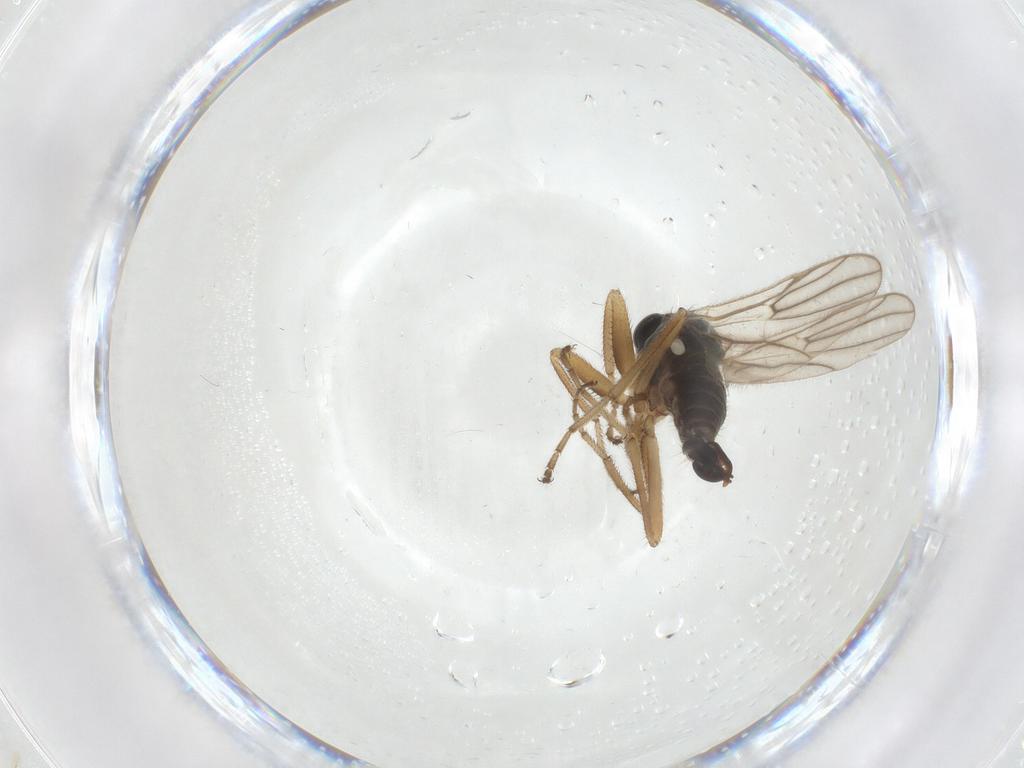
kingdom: Animalia
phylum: Arthropoda
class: Insecta
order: Diptera
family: Hybotidae
